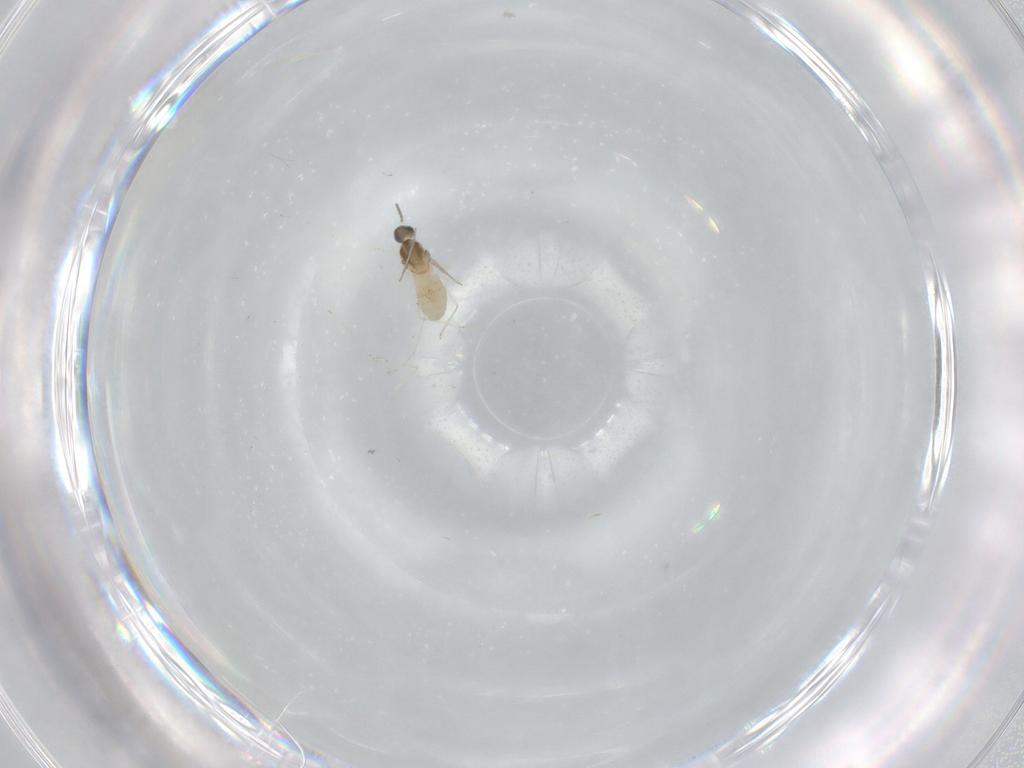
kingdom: Animalia
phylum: Arthropoda
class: Insecta
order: Diptera
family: Cecidomyiidae
